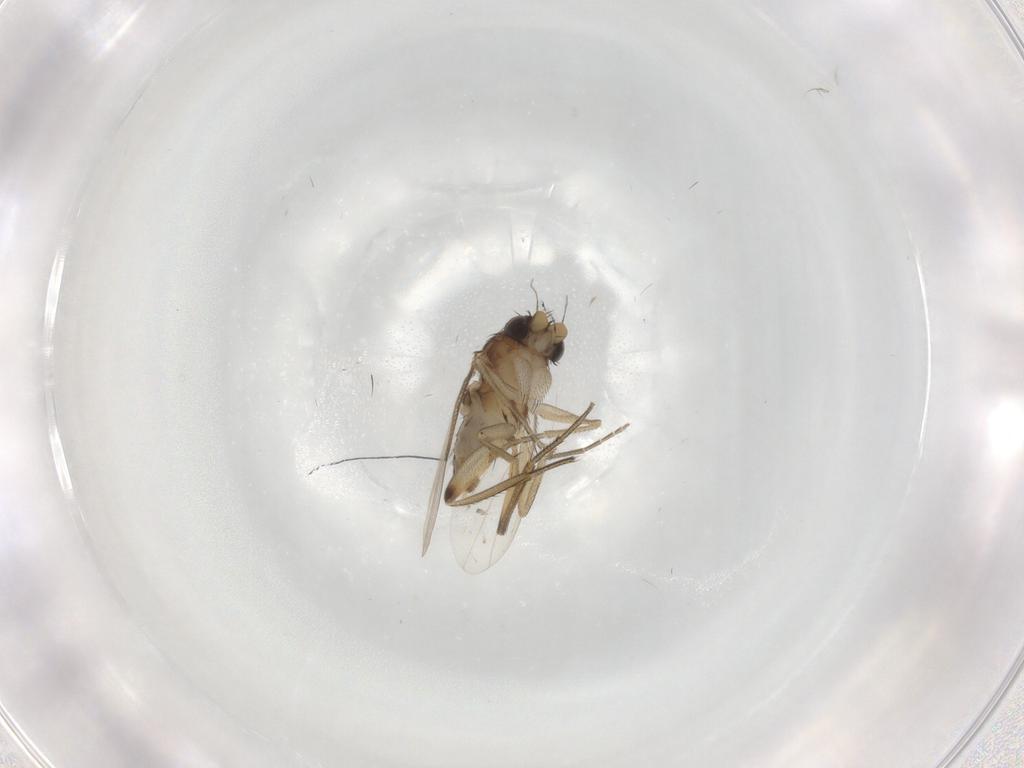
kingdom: Animalia
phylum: Arthropoda
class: Insecta
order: Diptera
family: Phoridae
